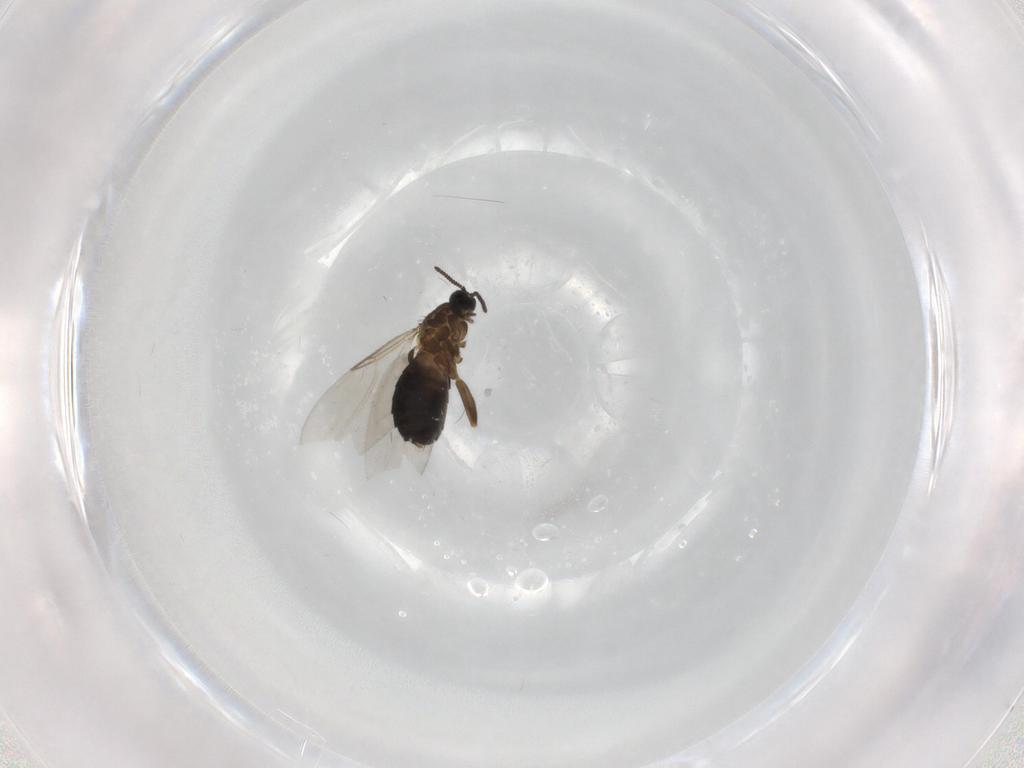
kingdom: Animalia
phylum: Arthropoda
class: Insecta
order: Diptera
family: Scatopsidae
